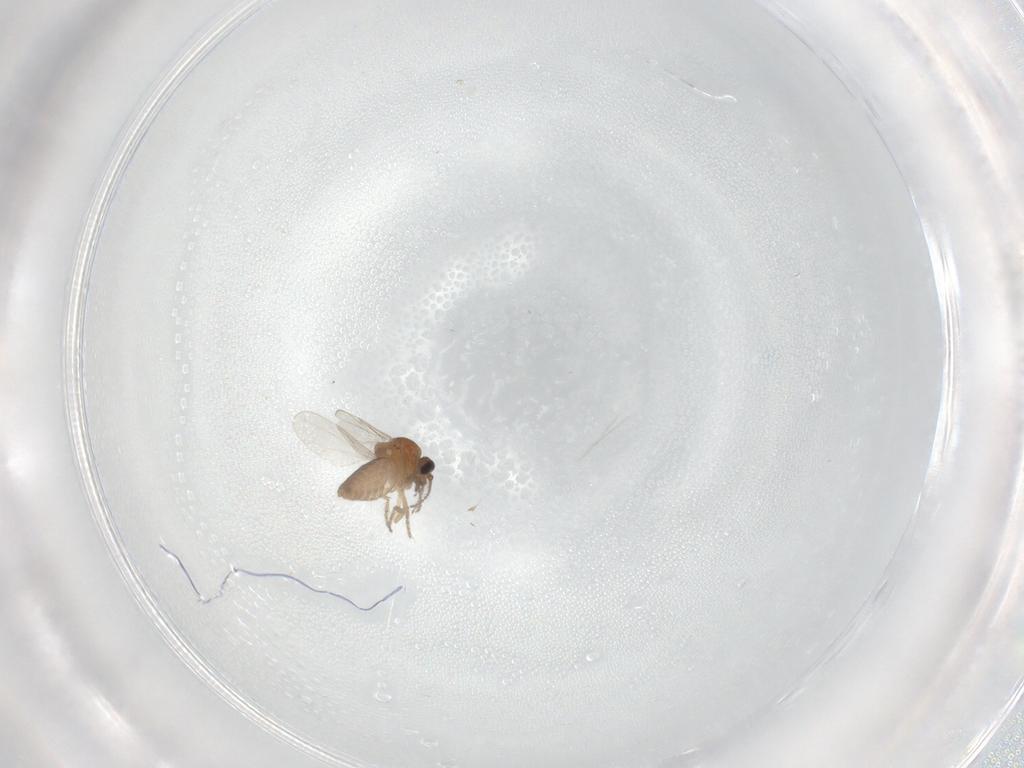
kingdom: Animalia
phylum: Arthropoda
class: Insecta
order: Diptera
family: Ceratopogonidae
